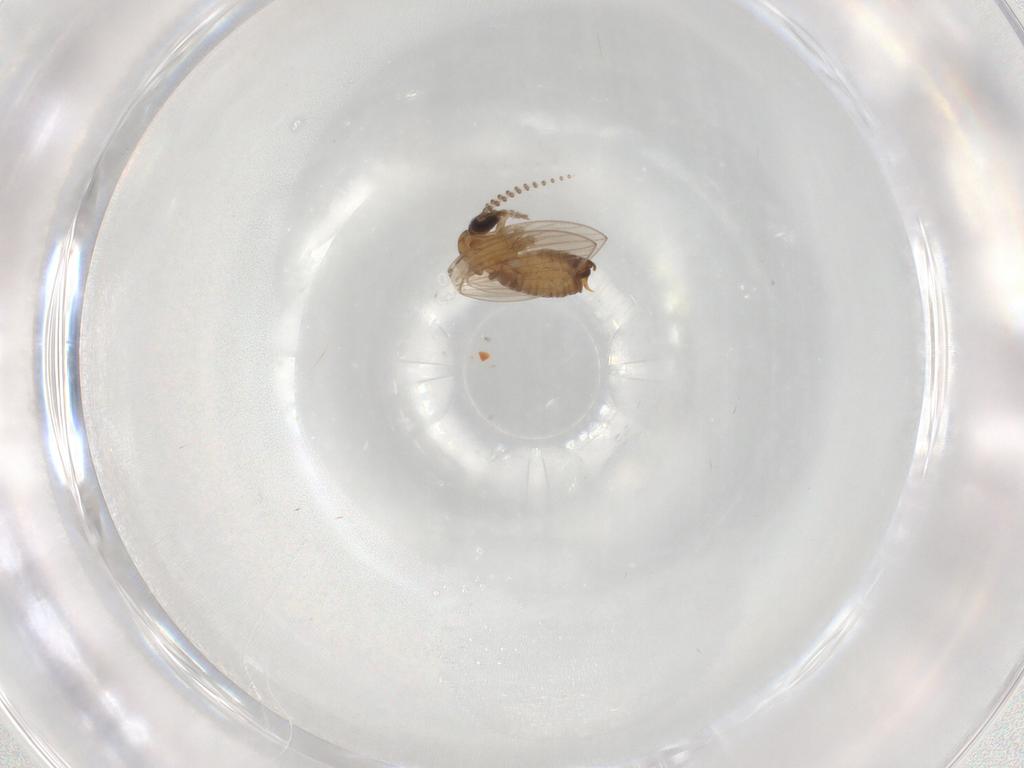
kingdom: Animalia
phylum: Arthropoda
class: Insecta
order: Diptera
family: Psychodidae
